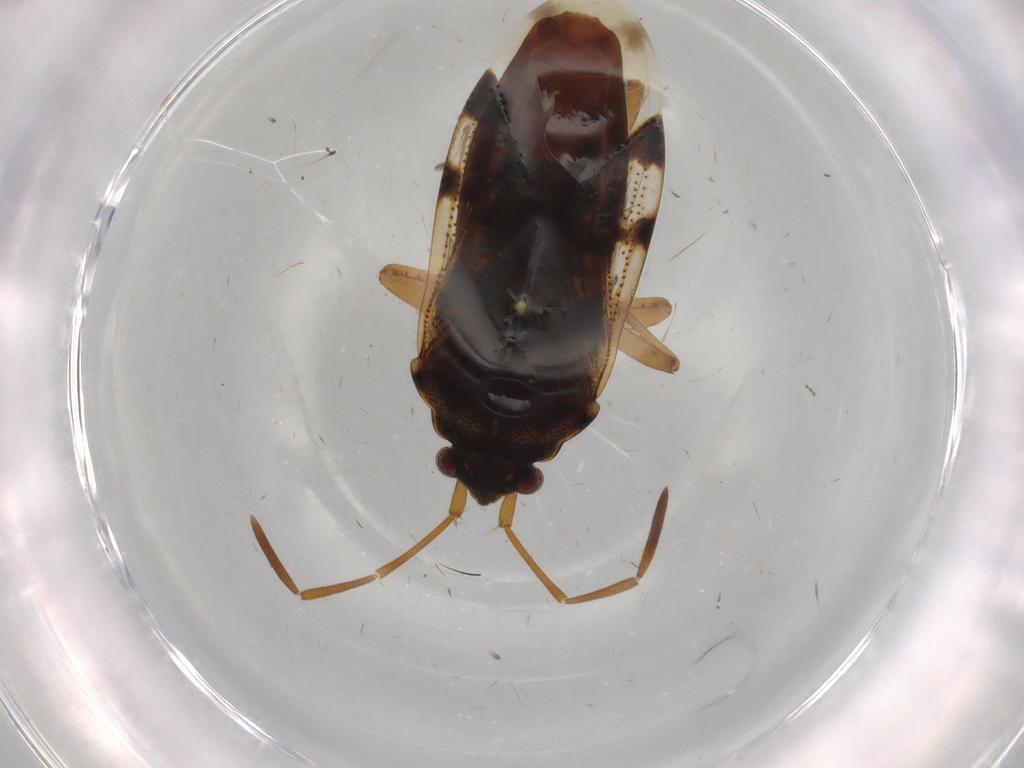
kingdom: Animalia
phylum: Arthropoda
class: Insecta
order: Hemiptera
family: Rhyparochromidae
